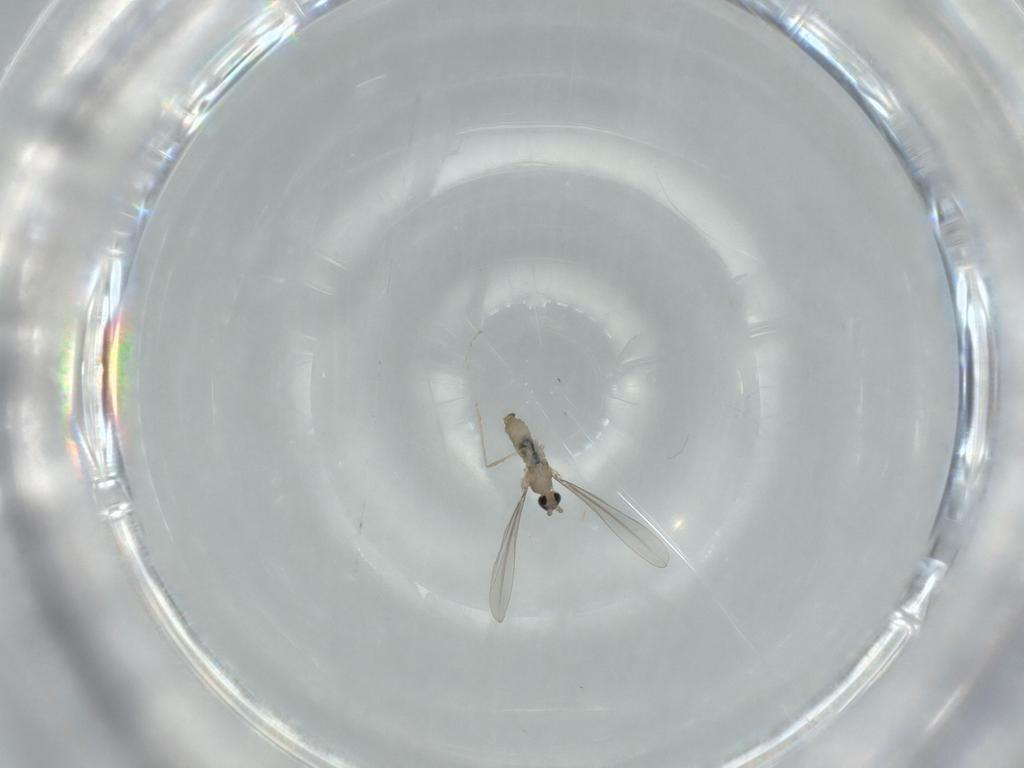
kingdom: Animalia
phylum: Arthropoda
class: Insecta
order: Diptera
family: Cecidomyiidae
